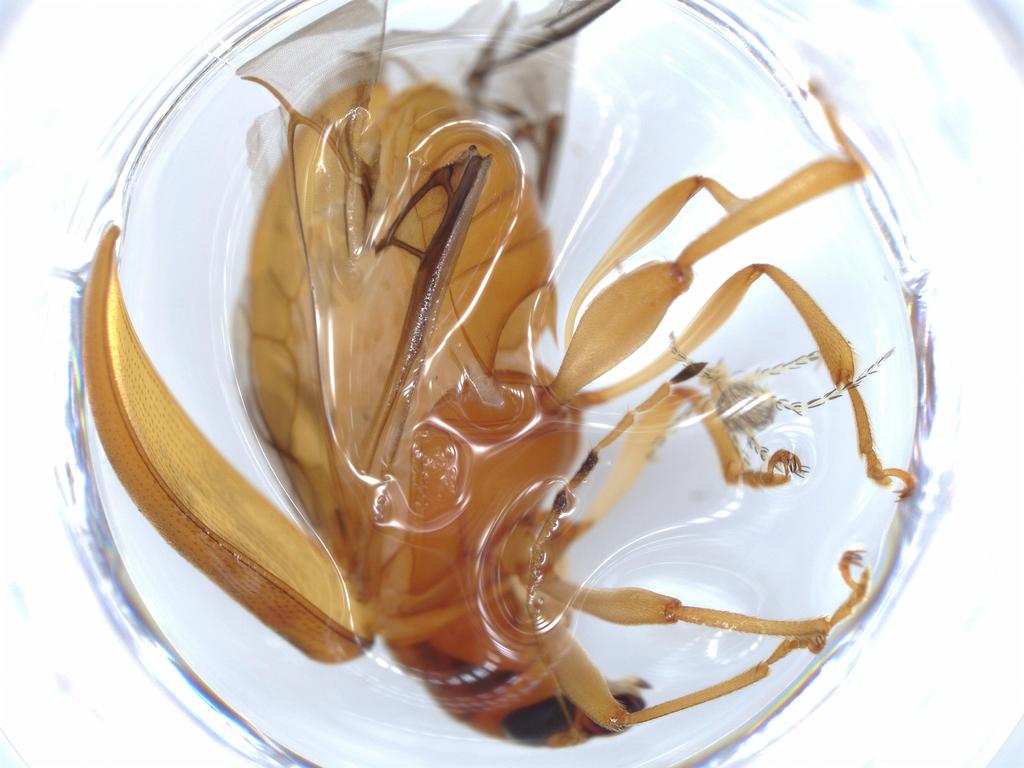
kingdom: Animalia
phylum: Arthropoda
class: Insecta
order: Coleoptera
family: Chrysomelidae
